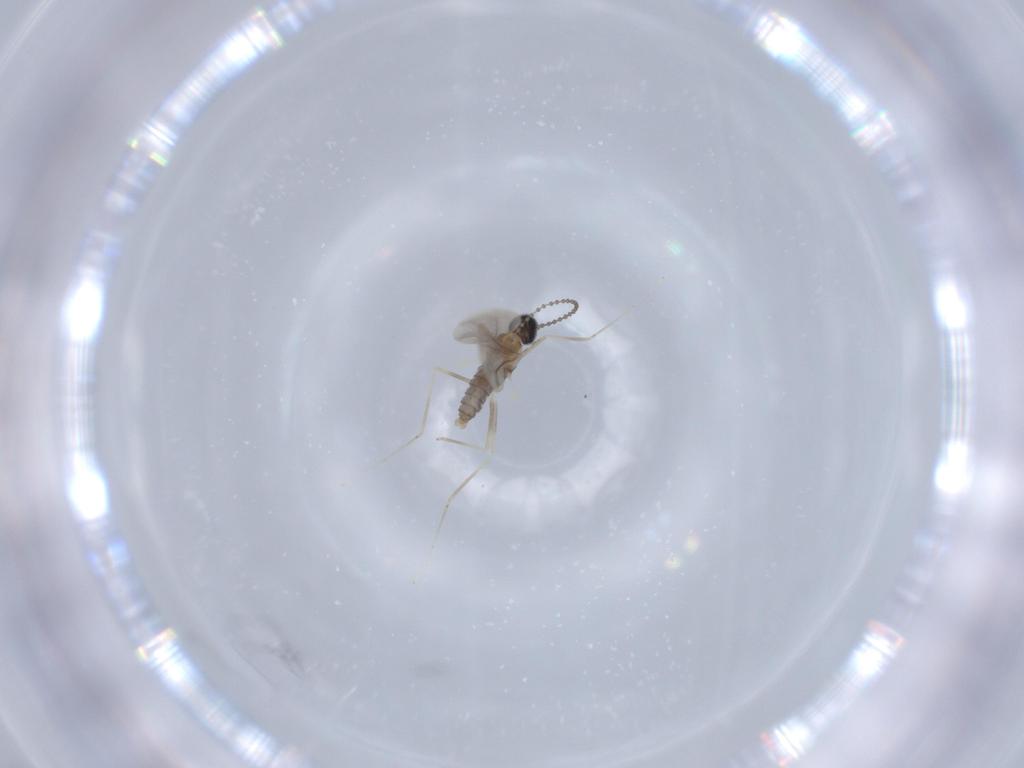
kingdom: Animalia
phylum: Arthropoda
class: Insecta
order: Diptera
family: Cecidomyiidae
